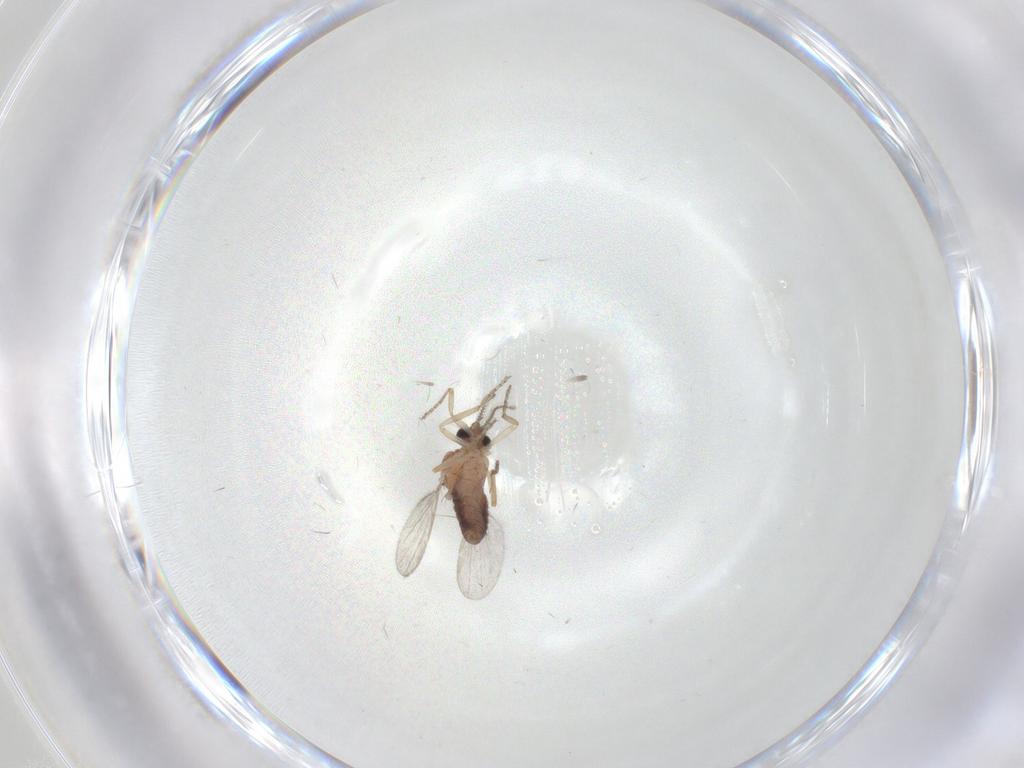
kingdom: Animalia
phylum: Arthropoda
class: Insecta
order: Diptera
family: Ceratopogonidae
